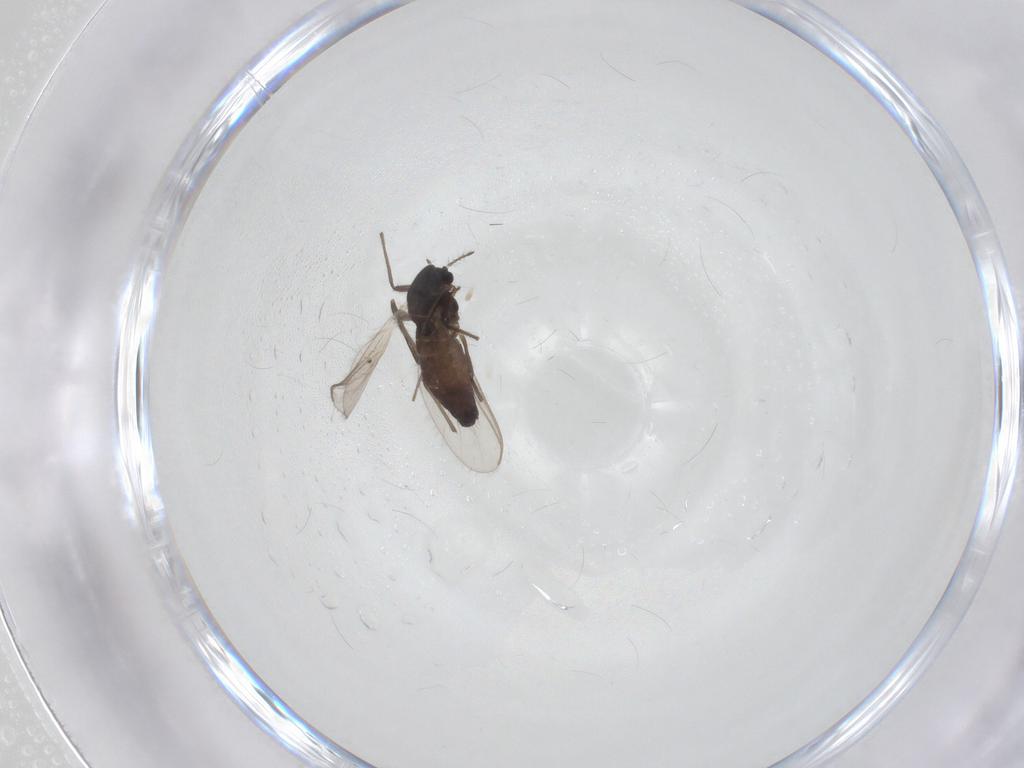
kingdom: Animalia
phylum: Arthropoda
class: Insecta
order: Diptera
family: Chironomidae
